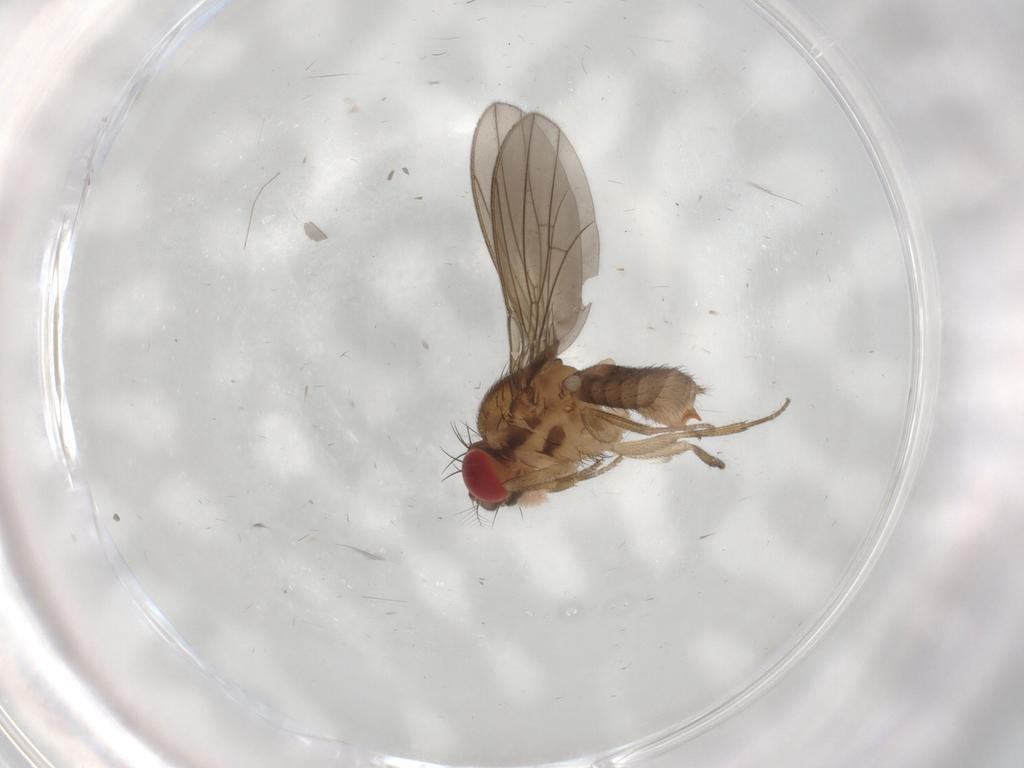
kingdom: Animalia
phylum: Arthropoda
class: Insecta
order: Diptera
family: Drosophilidae
